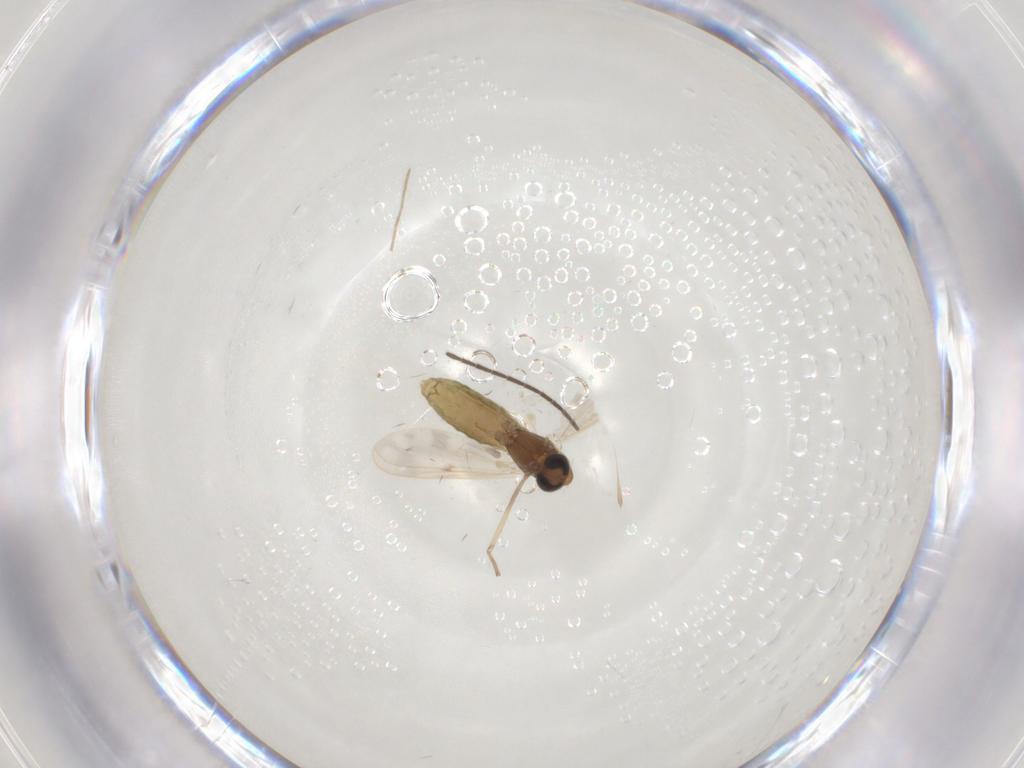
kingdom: Animalia
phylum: Arthropoda
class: Insecta
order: Diptera
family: Chironomidae
